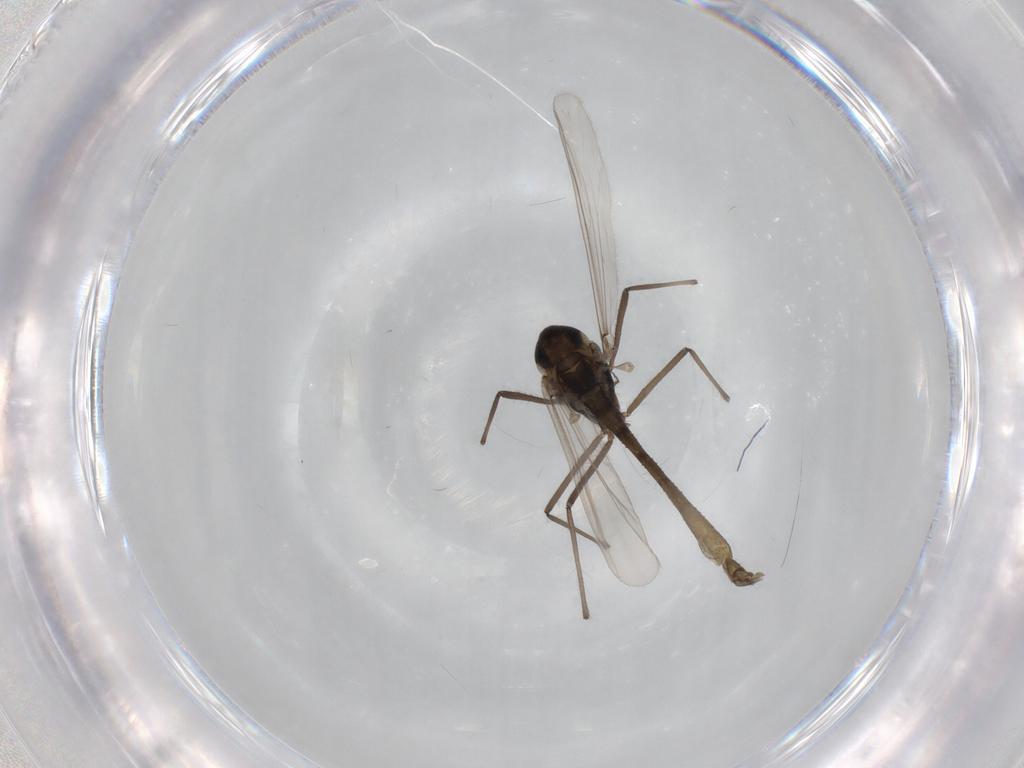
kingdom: Animalia
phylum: Arthropoda
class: Insecta
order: Diptera
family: Chironomidae
